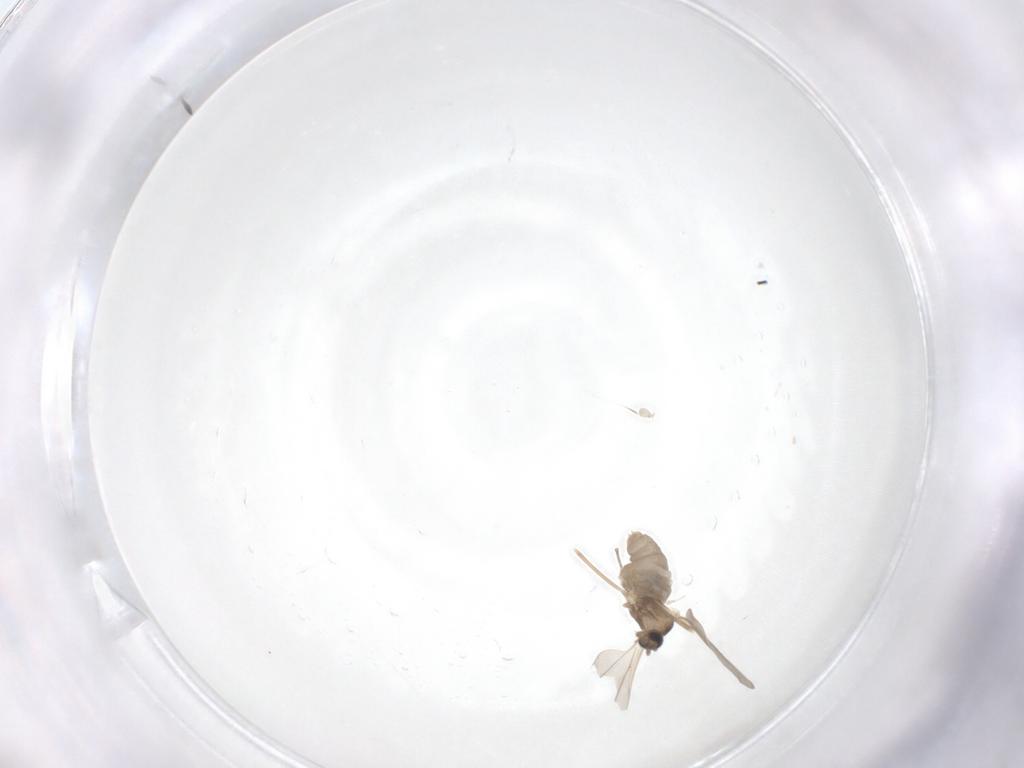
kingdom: Animalia
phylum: Arthropoda
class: Insecta
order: Diptera
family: Cecidomyiidae
